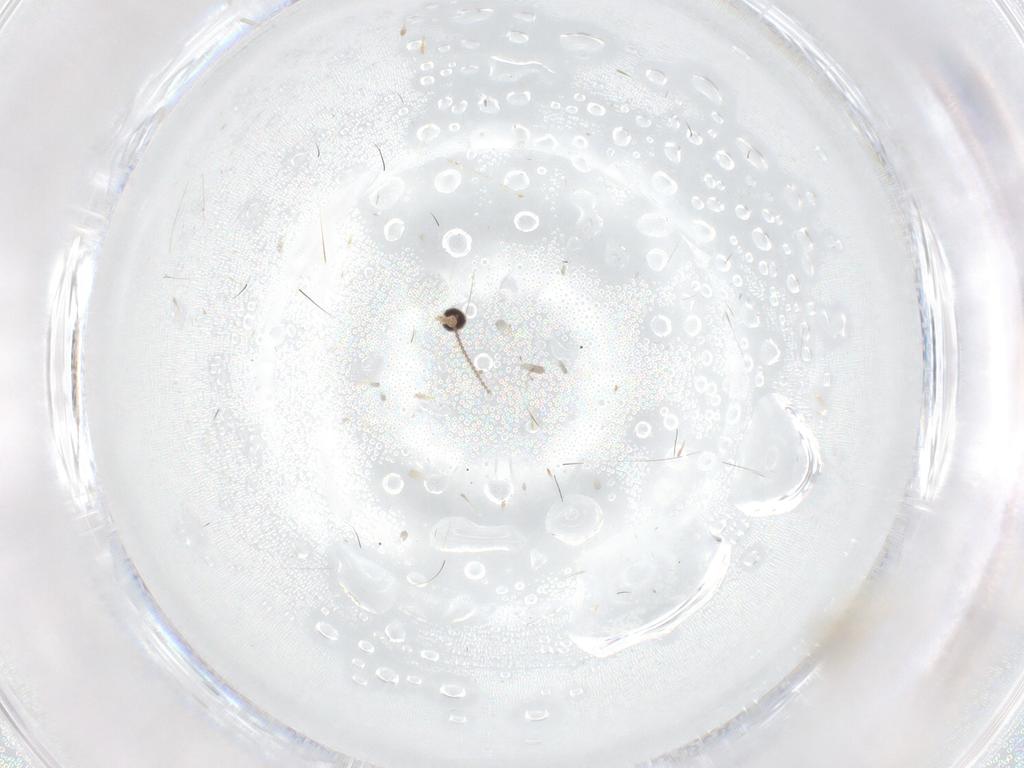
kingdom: Animalia
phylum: Arthropoda
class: Insecta
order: Diptera
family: Cecidomyiidae
